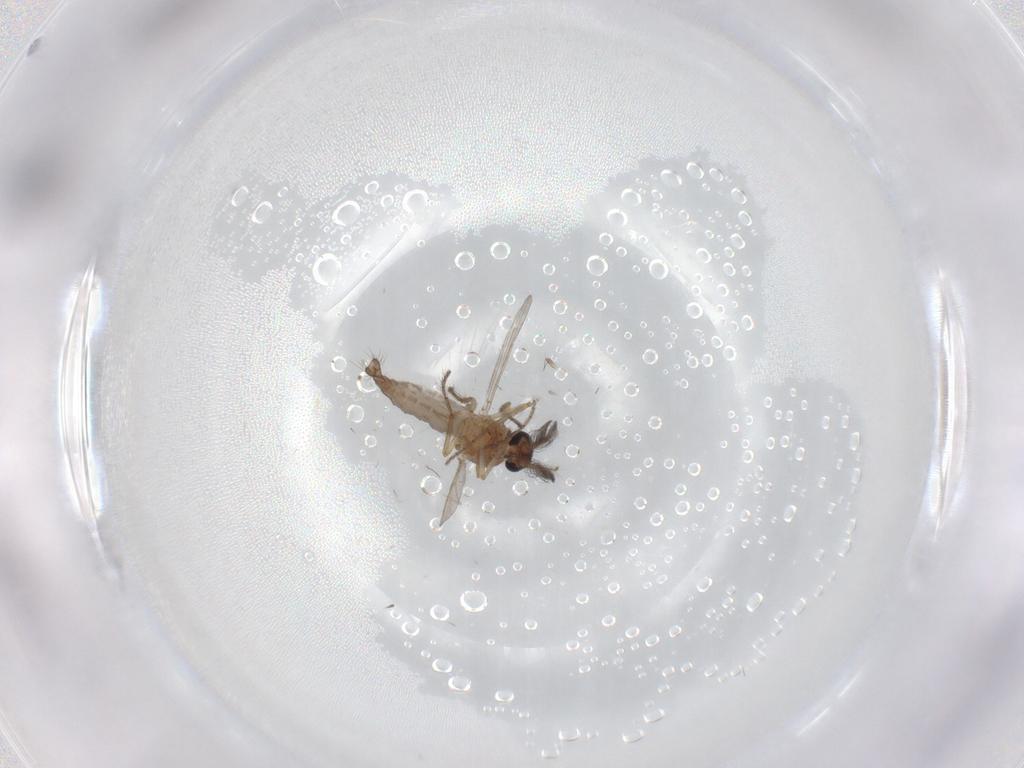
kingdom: Animalia
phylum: Arthropoda
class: Insecta
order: Diptera
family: Ceratopogonidae
